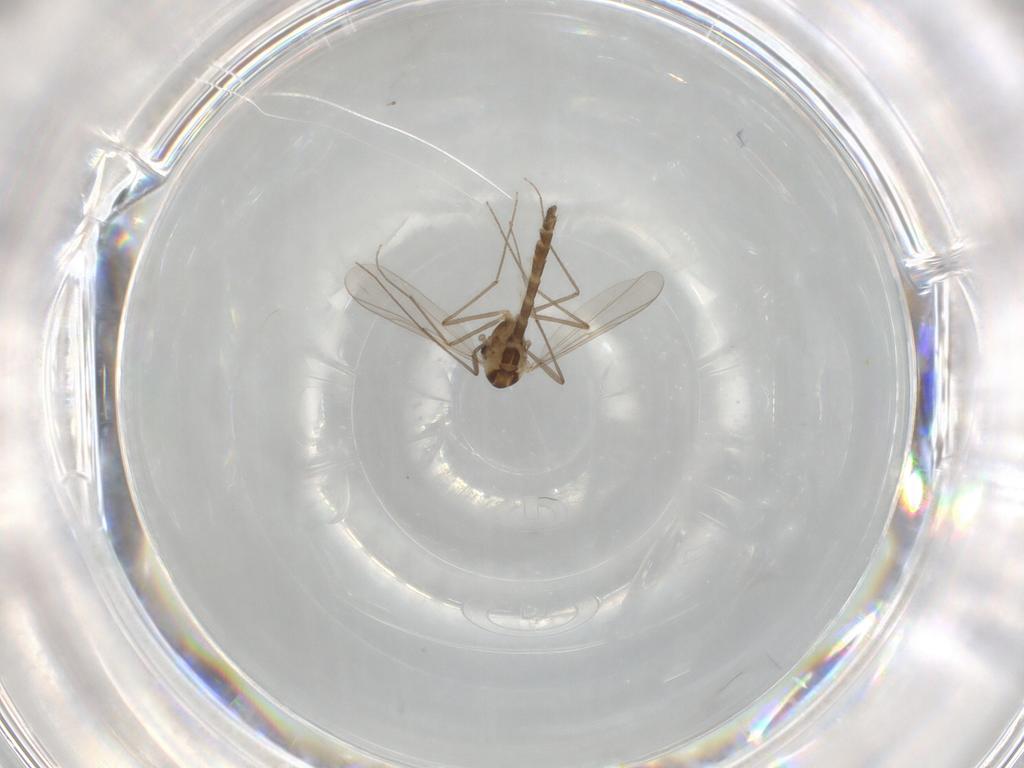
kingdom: Animalia
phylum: Arthropoda
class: Insecta
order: Diptera
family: Chironomidae
